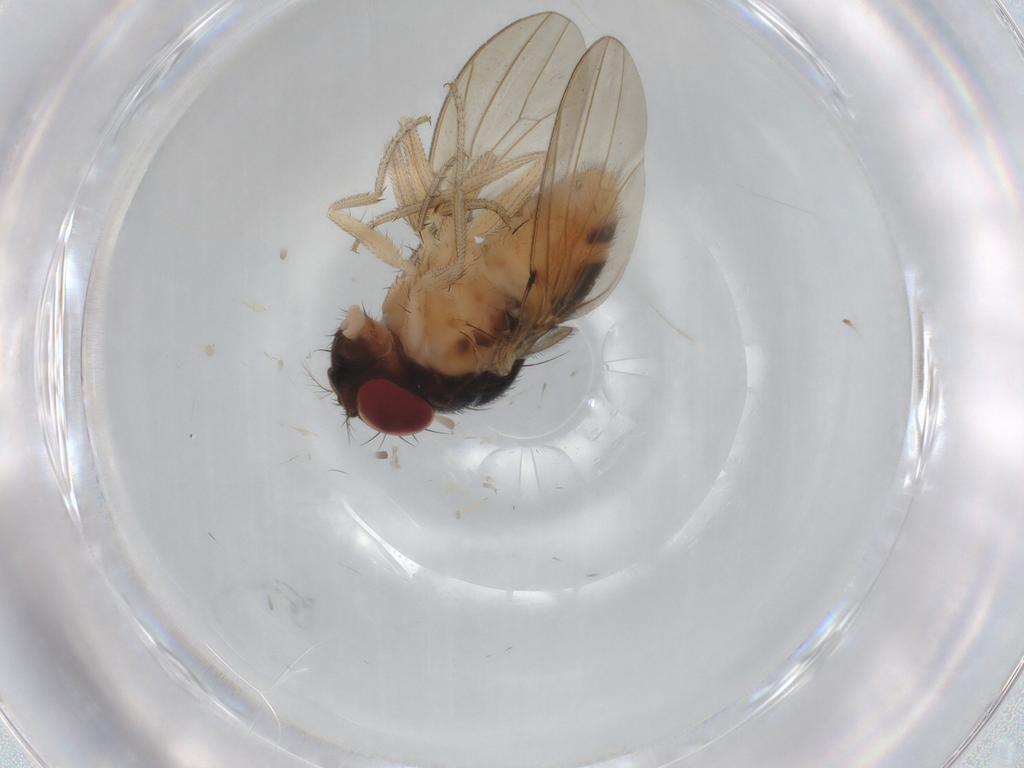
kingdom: Animalia
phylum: Arthropoda
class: Insecta
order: Diptera
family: Drosophilidae
